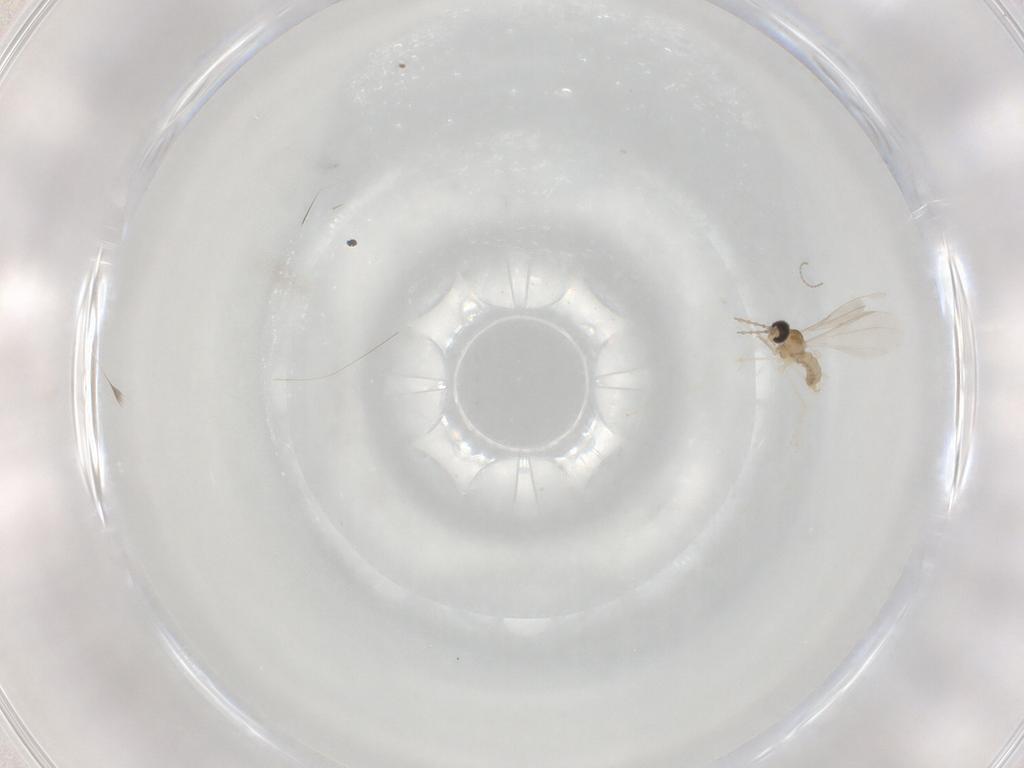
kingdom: Animalia
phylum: Arthropoda
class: Insecta
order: Diptera
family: Cecidomyiidae
